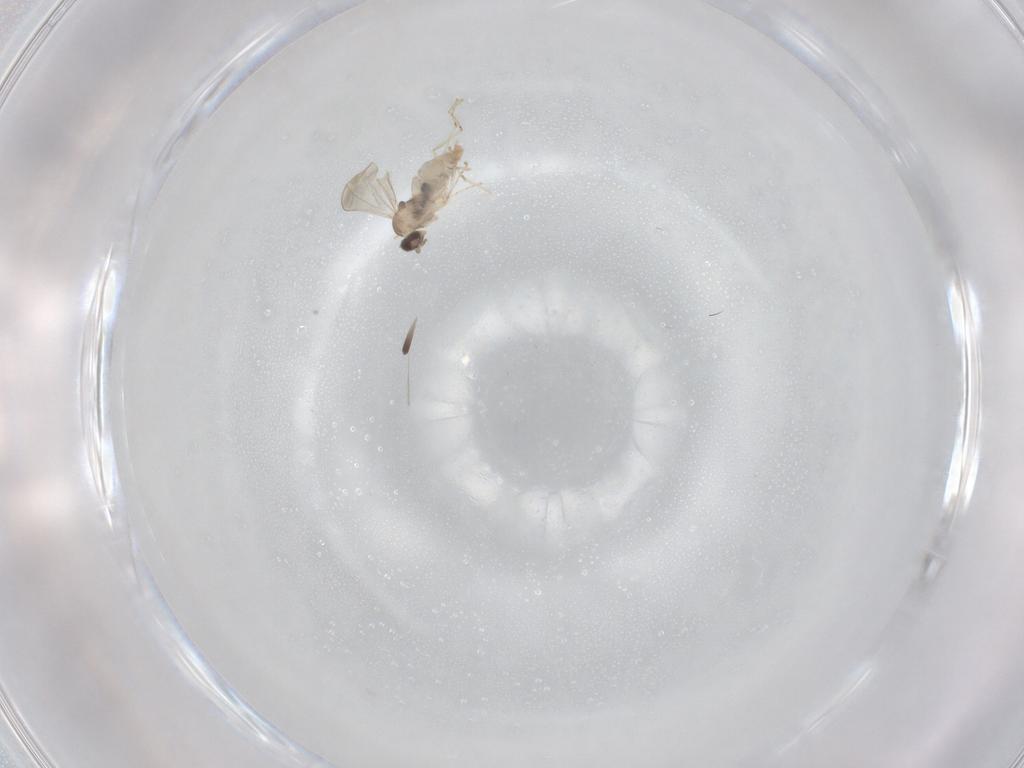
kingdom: Animalia
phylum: Arthropoda
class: Insecta
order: Diptera
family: Cecidomyiidae
